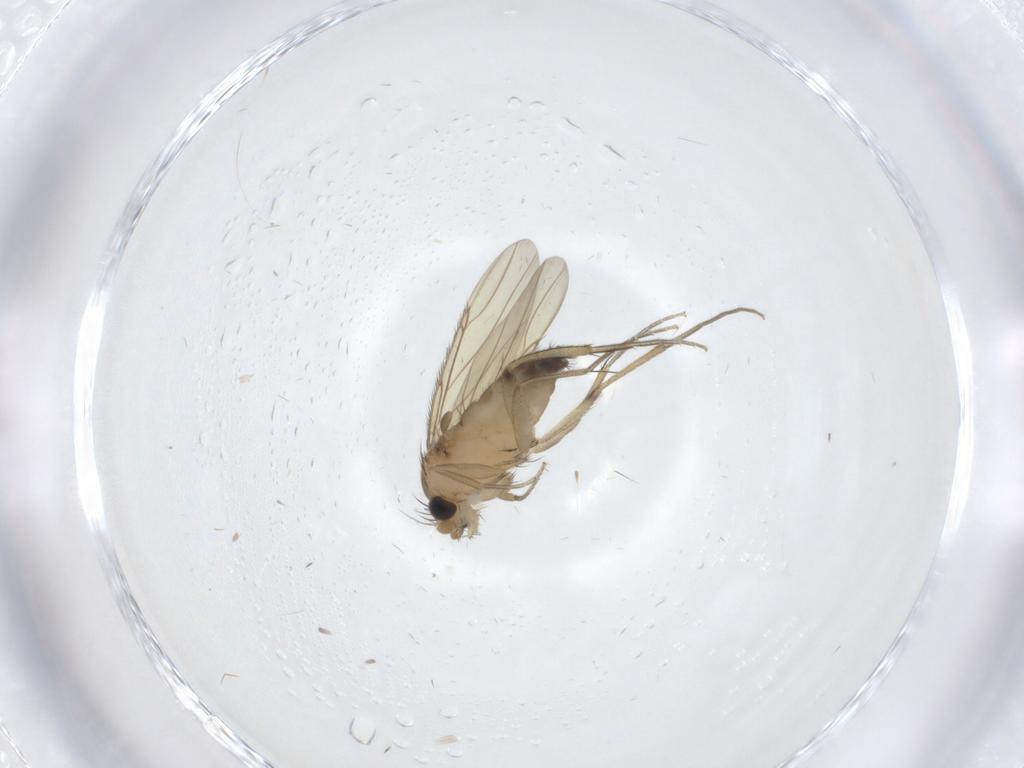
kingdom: Animalia
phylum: Arthropoda
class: Insecta
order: Diptera
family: Phoridae
